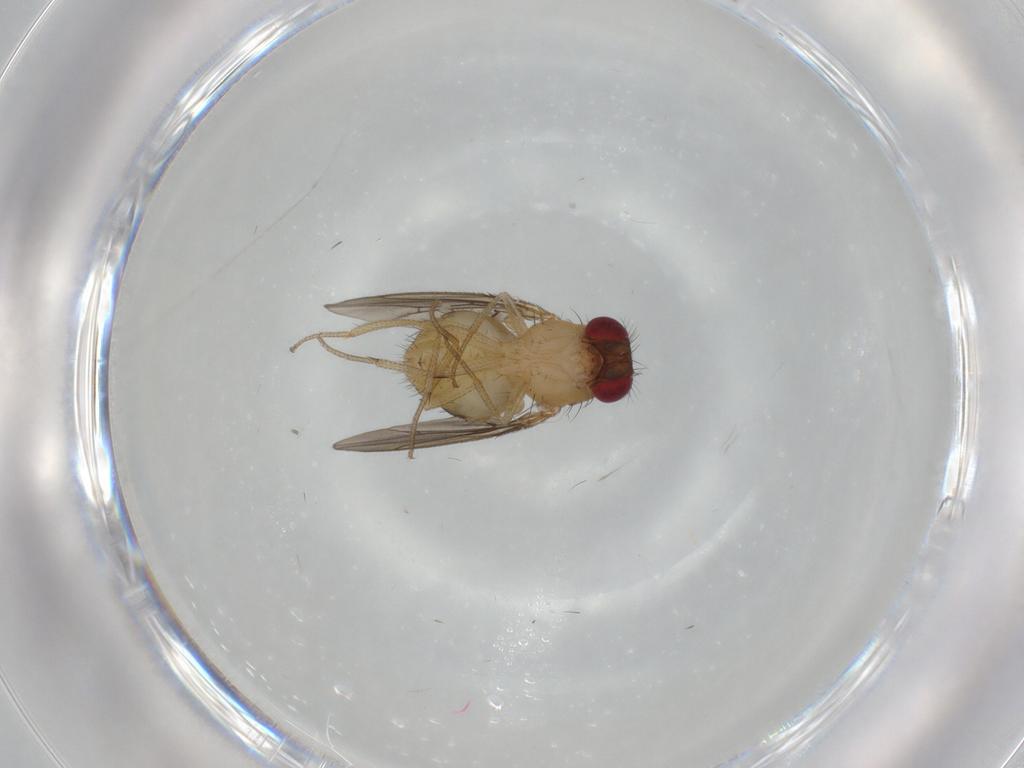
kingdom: Animalia
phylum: Arthropoda
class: Insecta
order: Diptera
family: Drosophilidae
